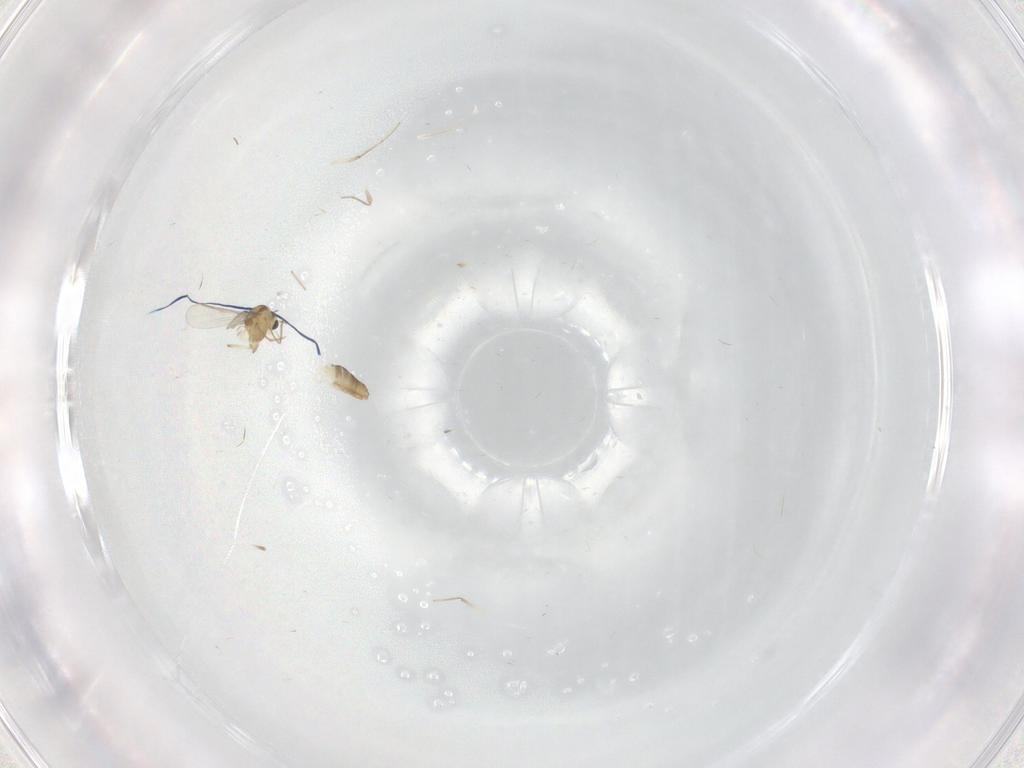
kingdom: Animalia
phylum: Arthropoda
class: Insecta
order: Diptera
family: Chironomidae
